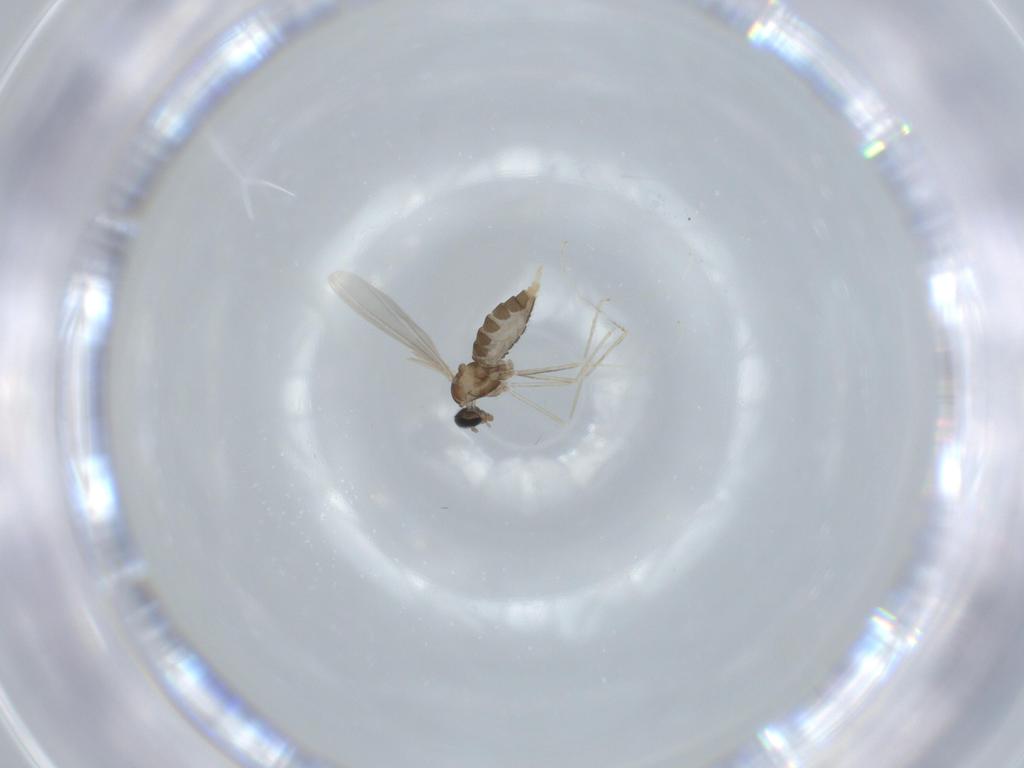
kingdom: Animalia
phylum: Arthropoda
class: Insecta
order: Diptera
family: Cecidomyiidae
